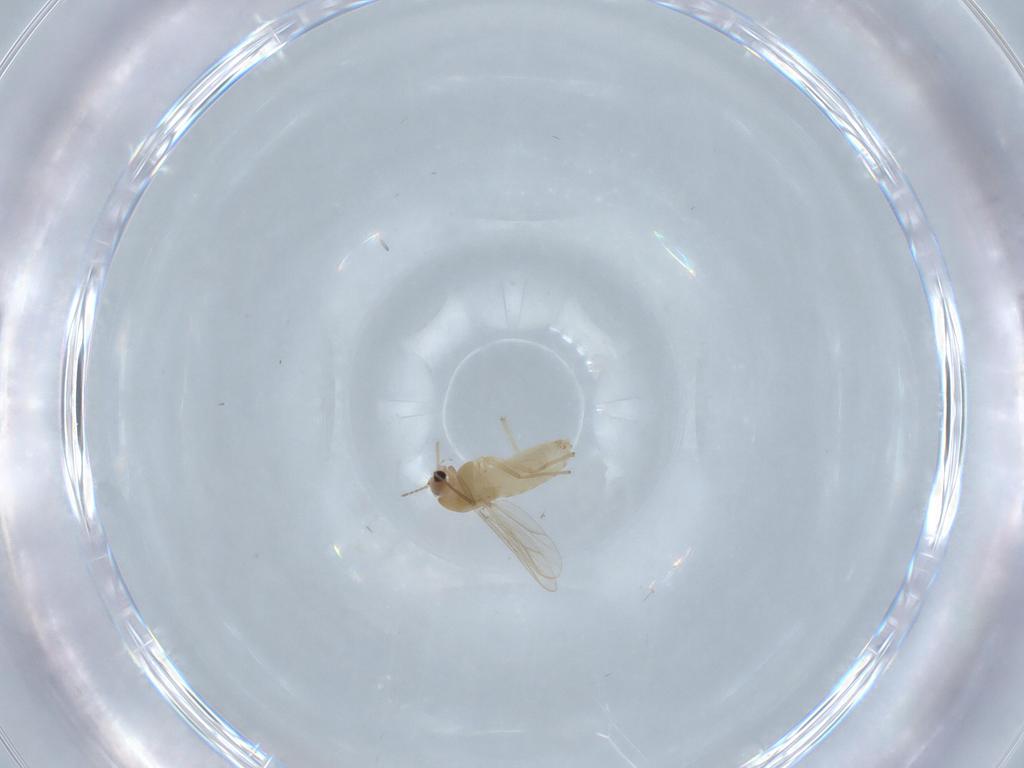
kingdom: Animalia
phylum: Arthropoda
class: Insecta
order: Diptera
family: Chironomidae
